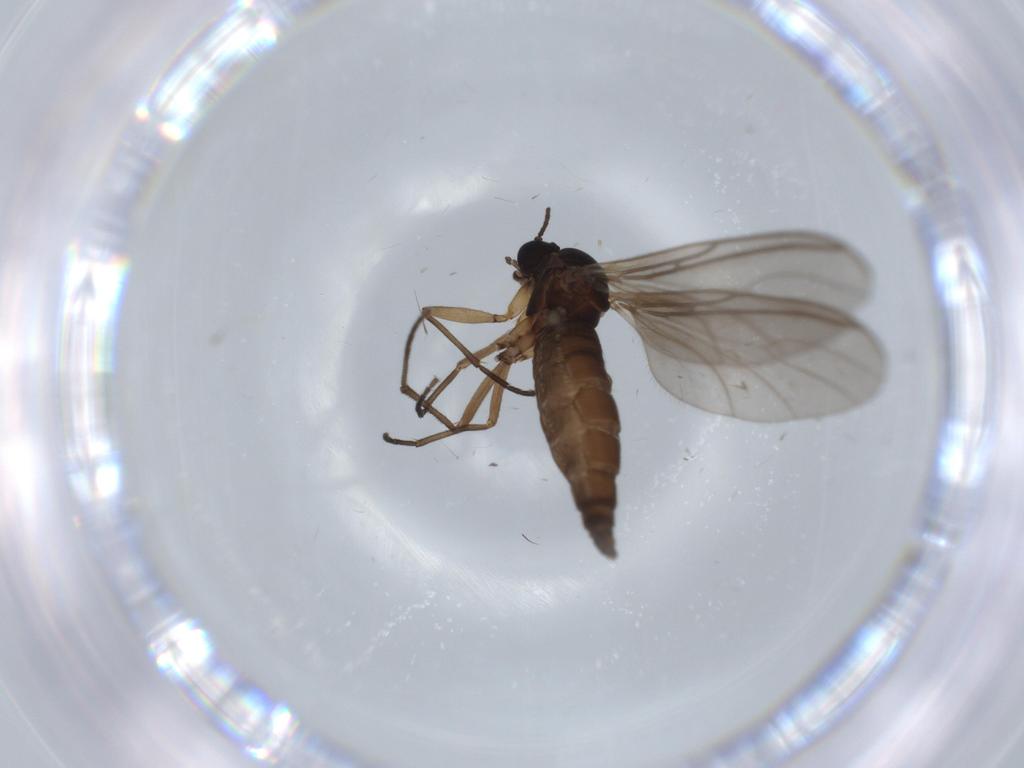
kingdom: Animalia
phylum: Arthropoda
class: Insecta
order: Diptera
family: Sciaridae
